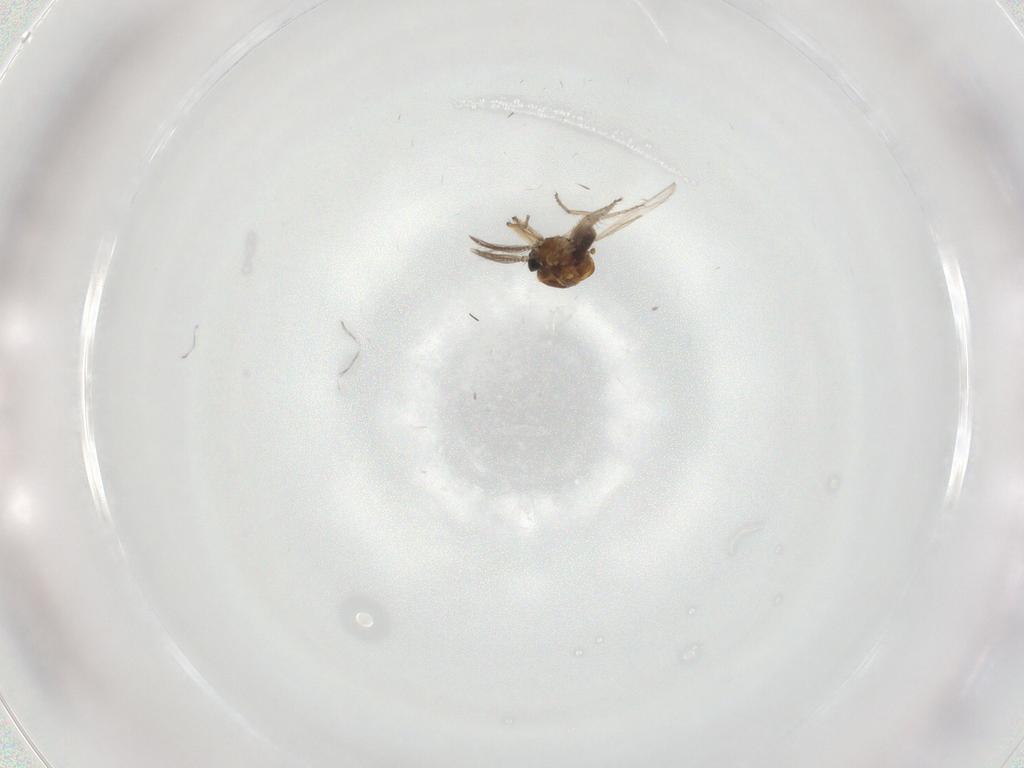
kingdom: Animalia
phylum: Arthropoda
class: Insecta
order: Diptera
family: Ceratopogonidae
